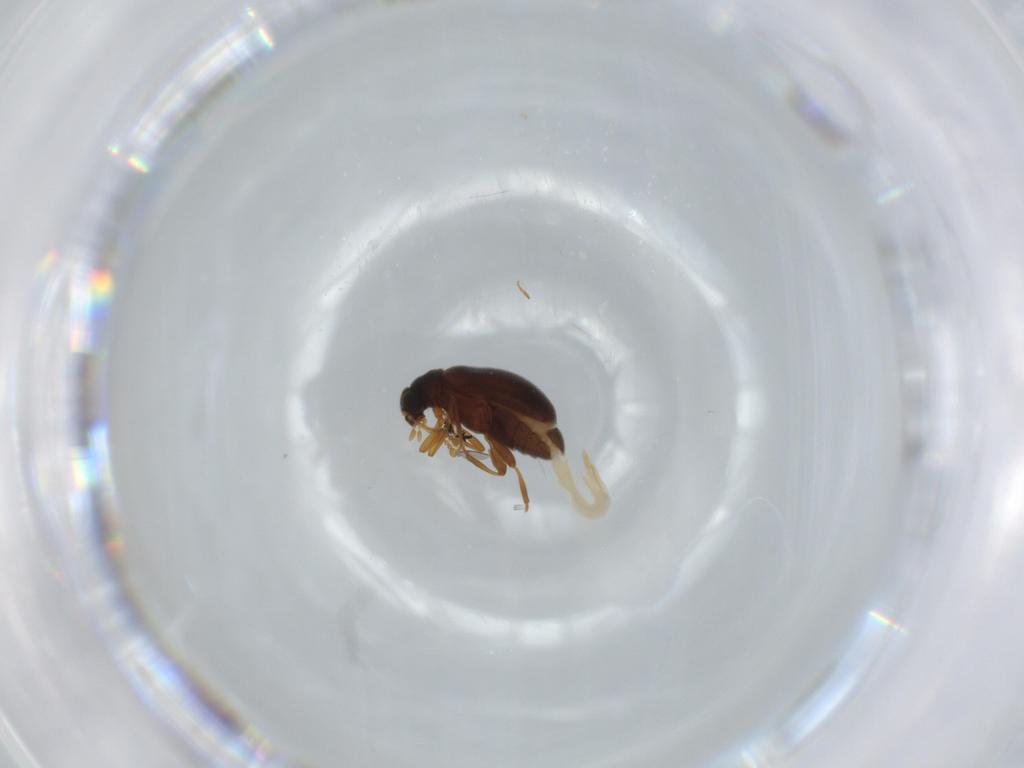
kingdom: Animalia
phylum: Arthropoda
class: Insecta
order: Coleoptera
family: Aderidae
